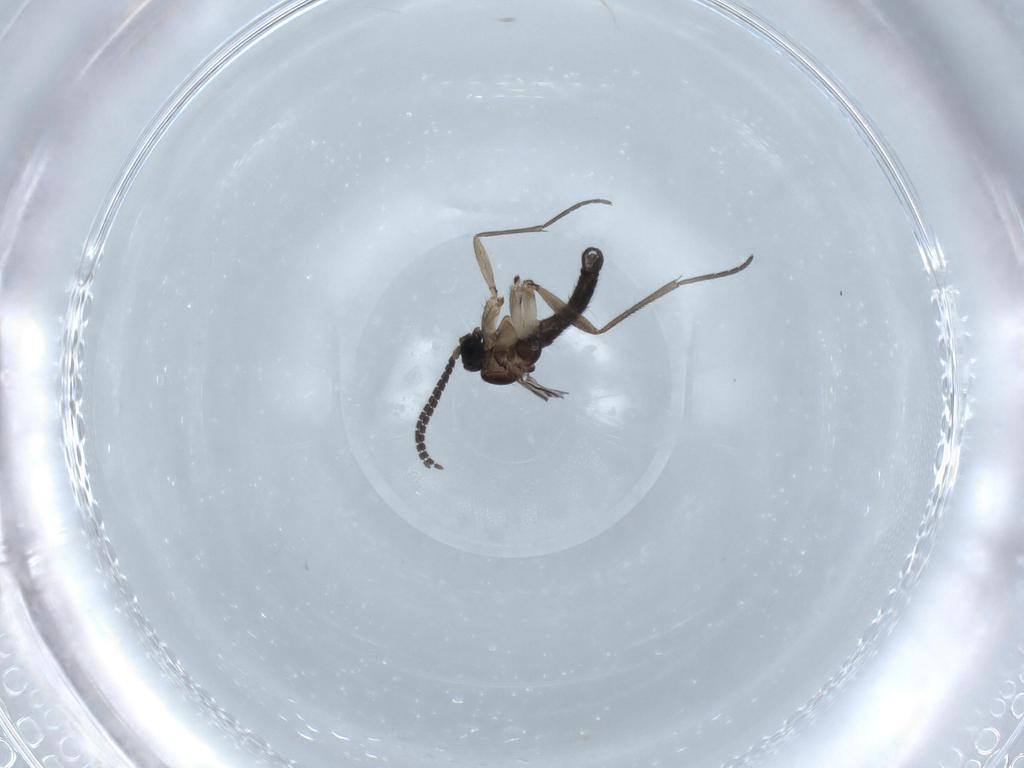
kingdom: Animalia
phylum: Arthropoda
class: Insecta
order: Diptera
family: Sciaridae
